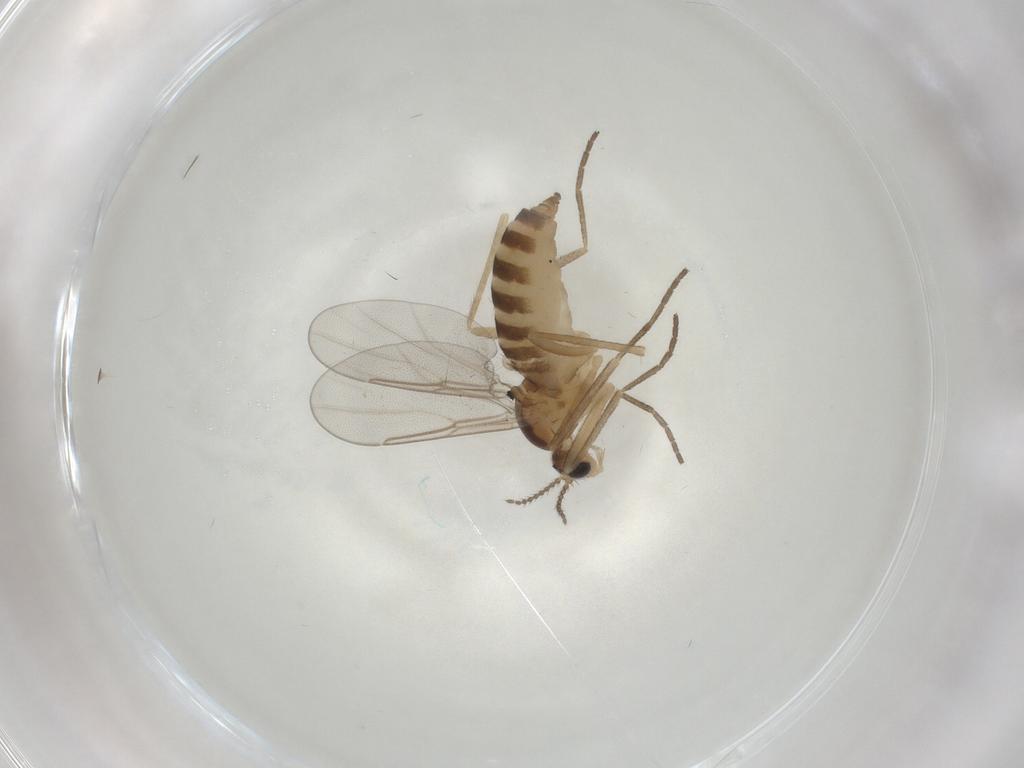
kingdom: Animalia
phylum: Arthropoda
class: Insecta
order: Diptera
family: Cecidomyiidae
